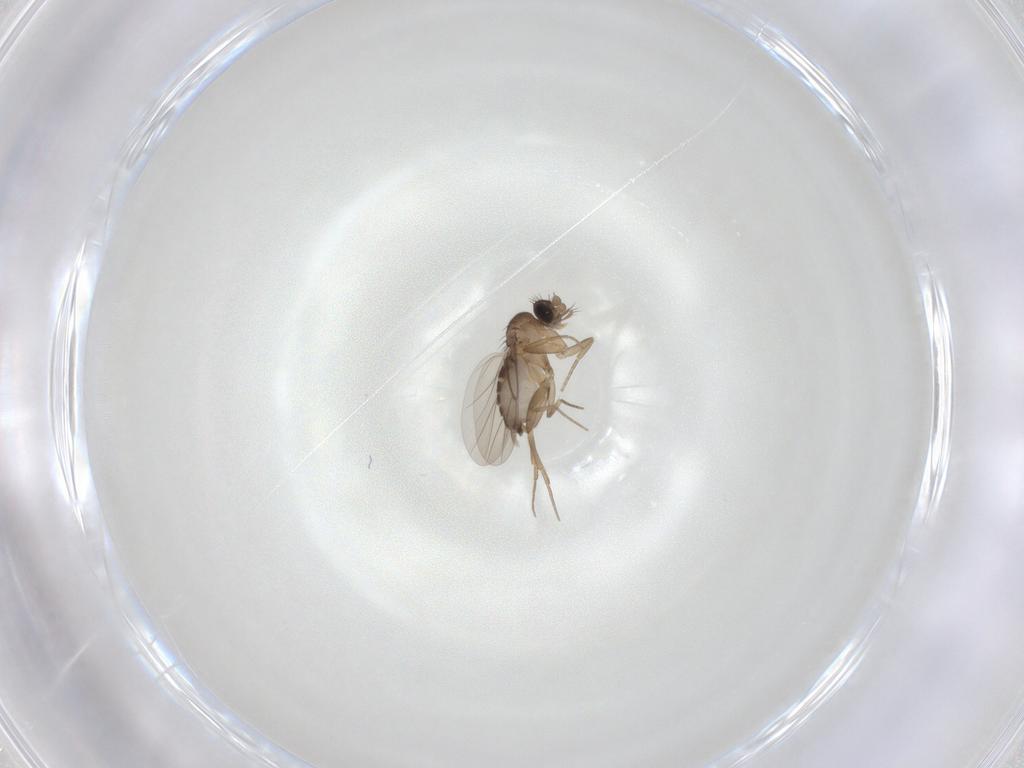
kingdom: Animalia
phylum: Arthropoda
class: Insecta
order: Diptera
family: Phoridae
